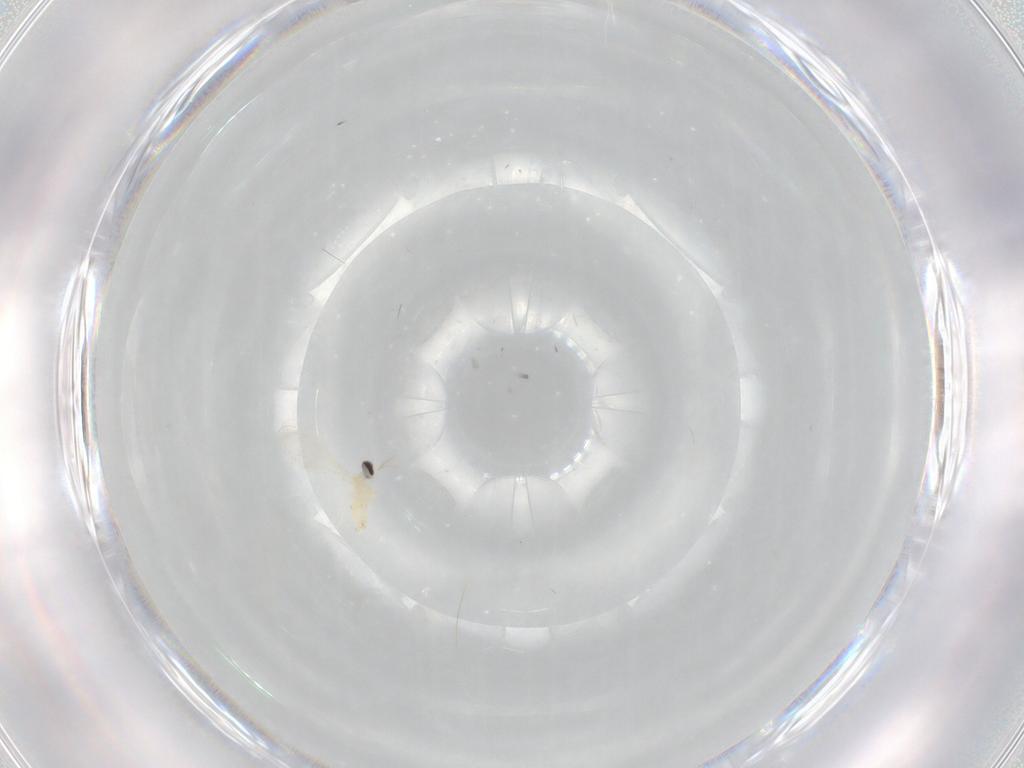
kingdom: Animalia
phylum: Arthropoda
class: Insecta
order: Diptera
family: Cecidomyiidae
